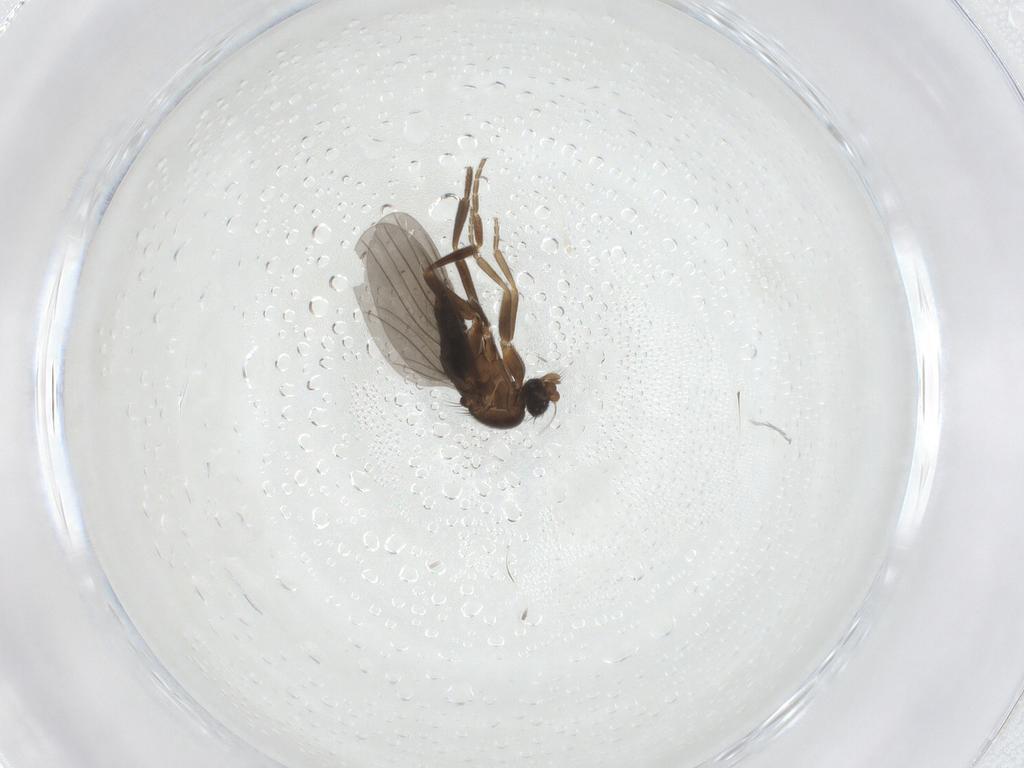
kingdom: Animalia
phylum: Arthropoda
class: Insecta
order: Diptera
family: Phoridae
